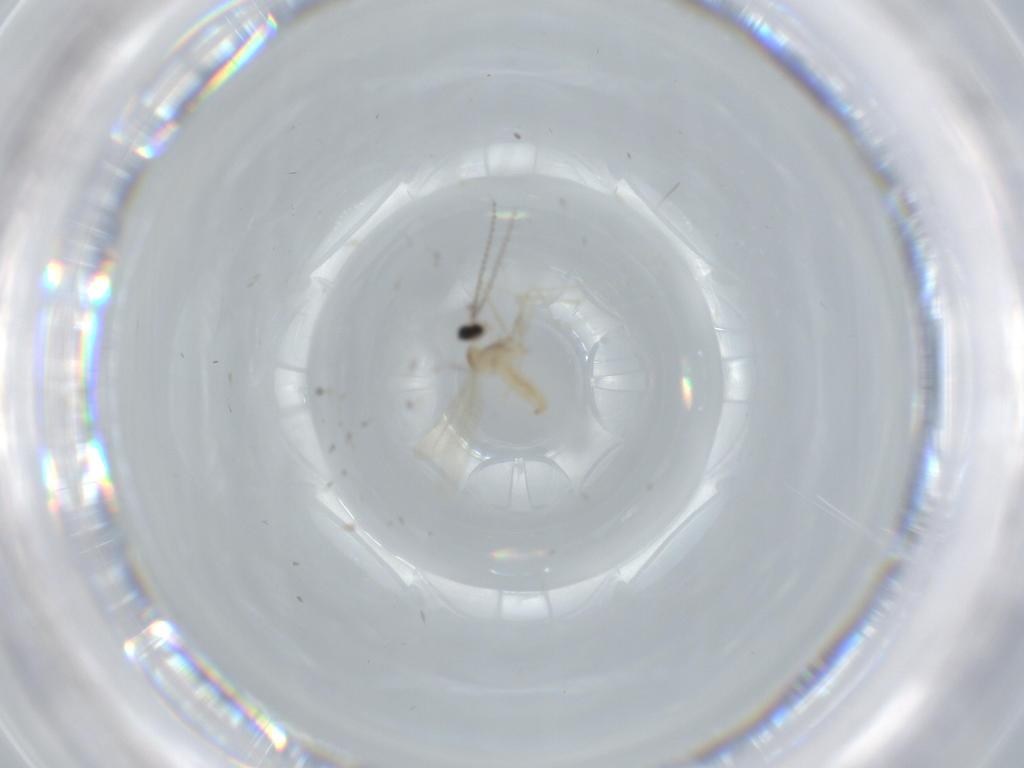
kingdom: Animalia
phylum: Arthropoda
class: Insecta
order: Diptera
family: Cecidomyiidae
